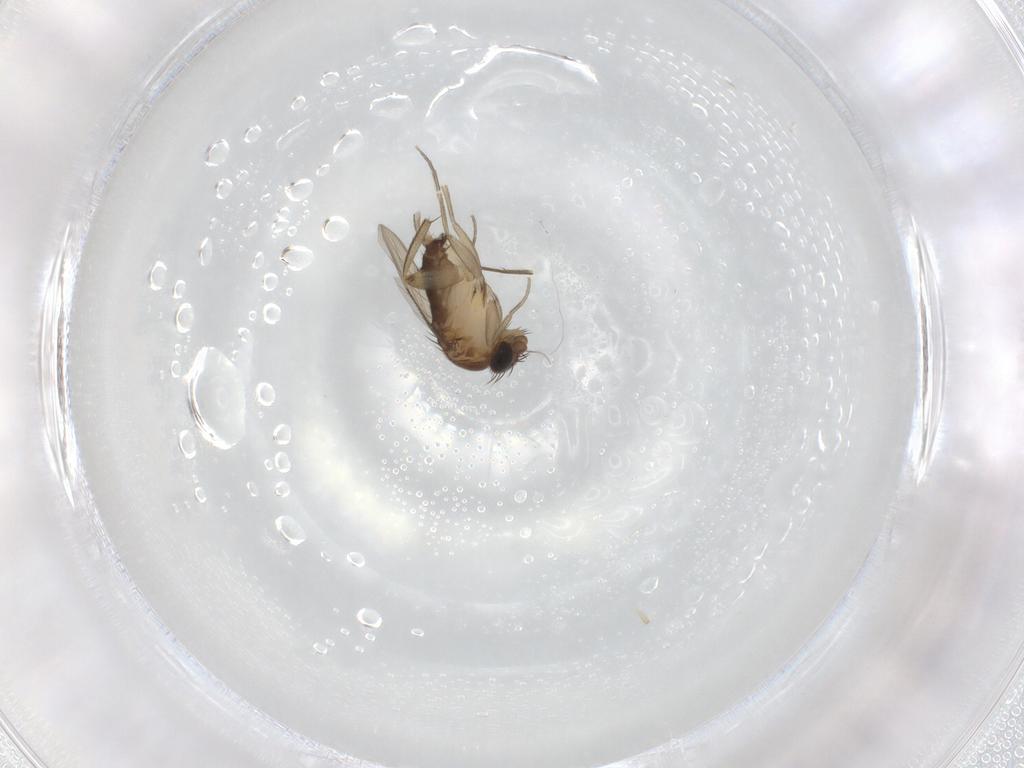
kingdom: Animalia
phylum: Arthropoda
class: Insecta
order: Diptera
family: Phoridae
